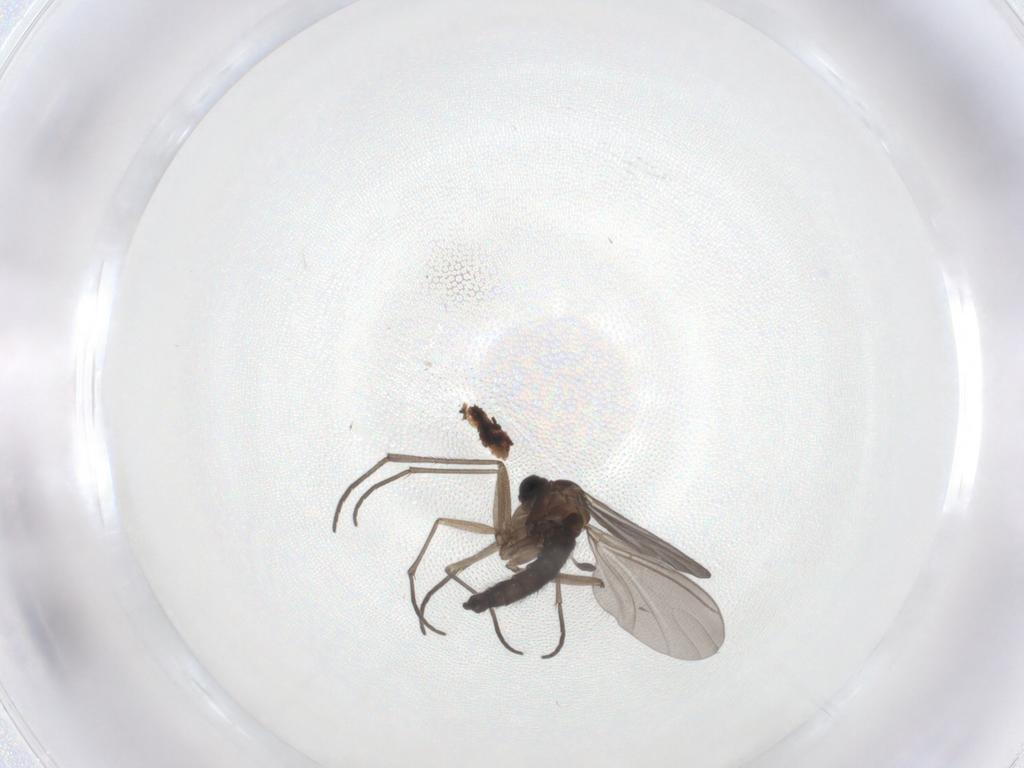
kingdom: Animalia
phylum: Arthropoda
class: Insecta
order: Diptera
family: Sciaridae
